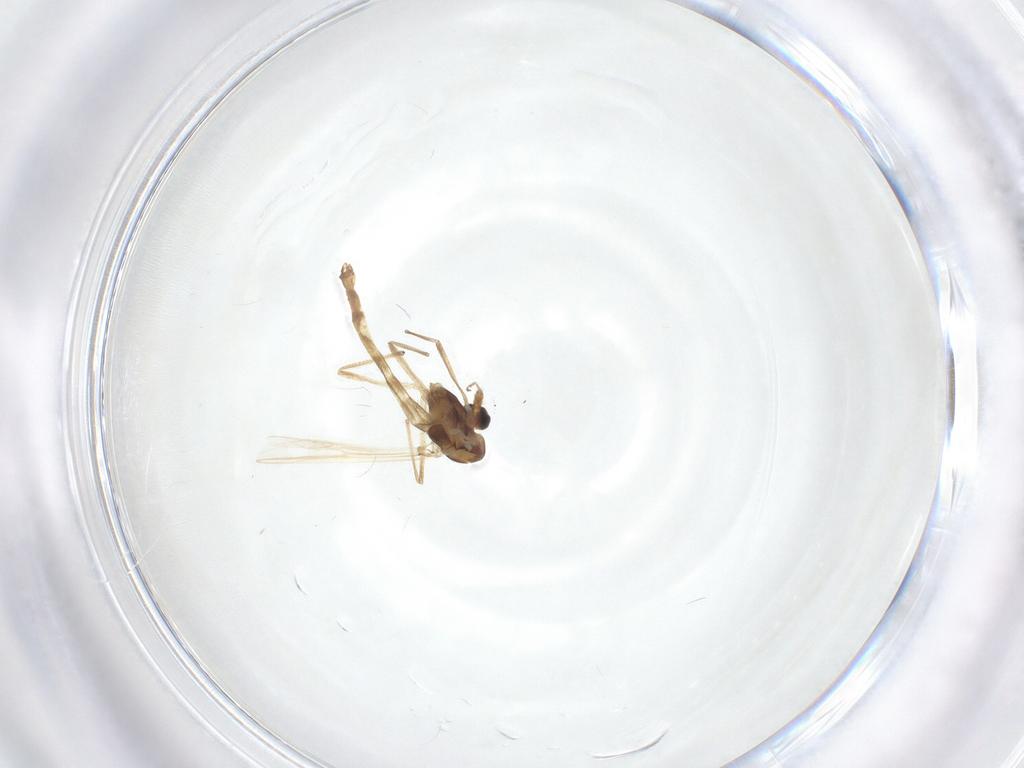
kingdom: Animalia
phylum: Arthropoda
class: Insecta
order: Diptera
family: Chironomidae
